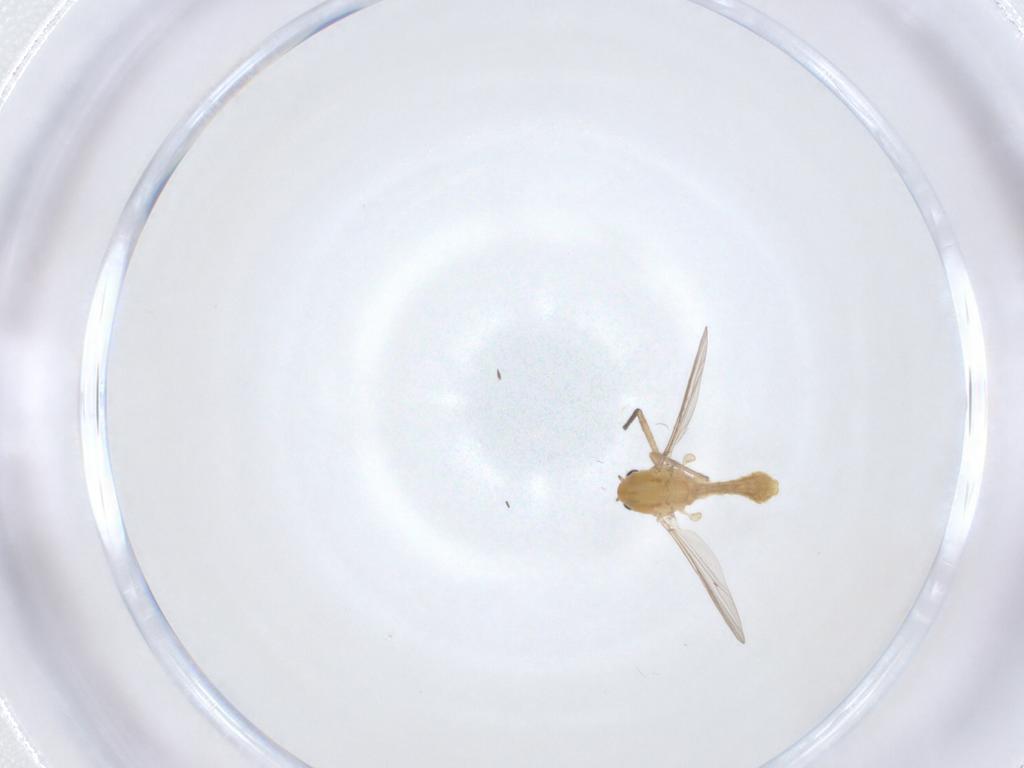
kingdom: Animalia
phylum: Arthropoda
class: Insecta
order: Diptera
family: Chironomidae
